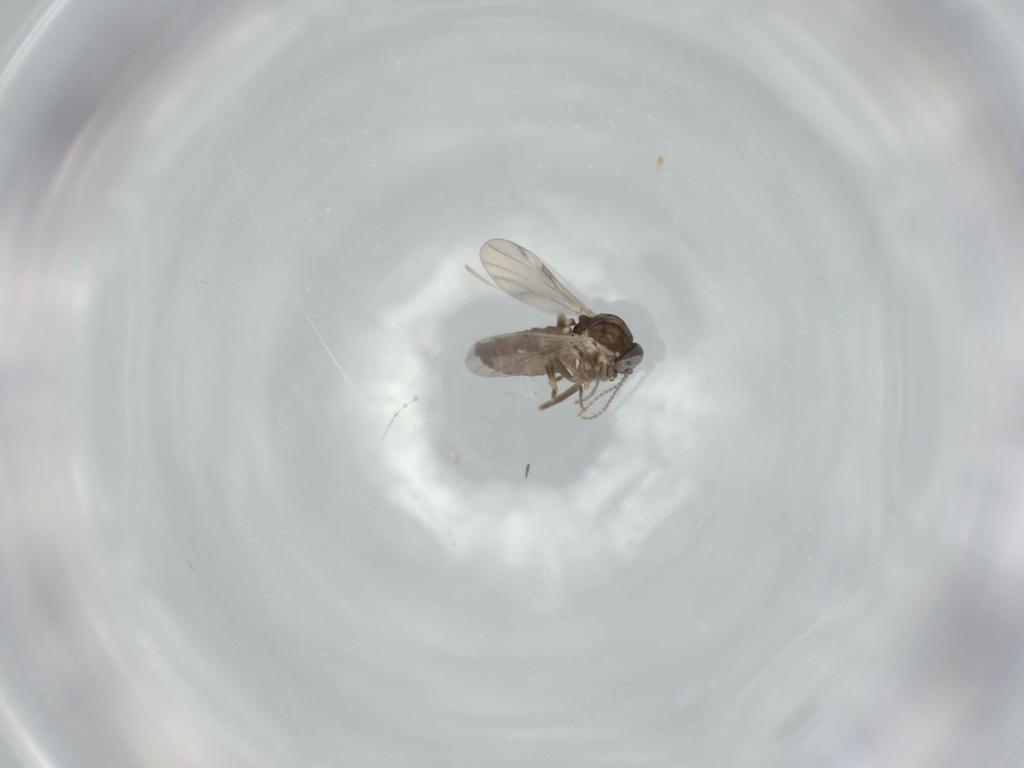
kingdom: Animalia
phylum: Arthropoda
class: Insecta
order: Diptera
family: Ceratopogonidae
